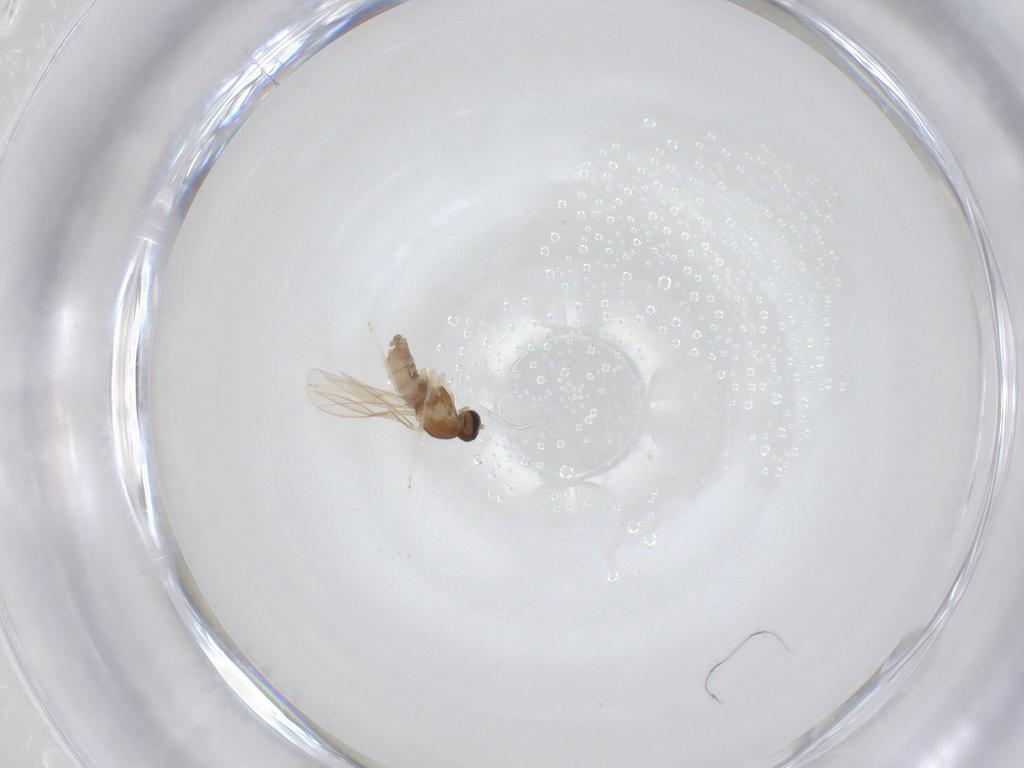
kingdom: Animalia
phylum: Arthropoda
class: Insecta
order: Diptera
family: Cecidomyiidae
